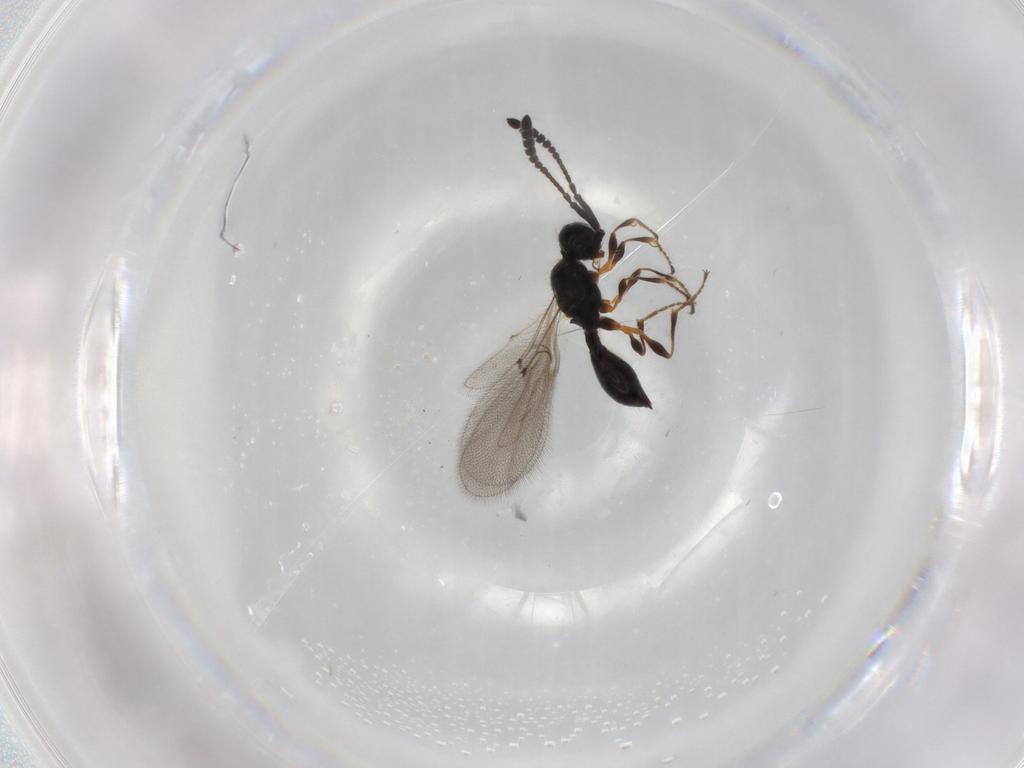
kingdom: Animalia
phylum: Arthropoda
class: Insecta
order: Hymenoptera
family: Diapriidae
